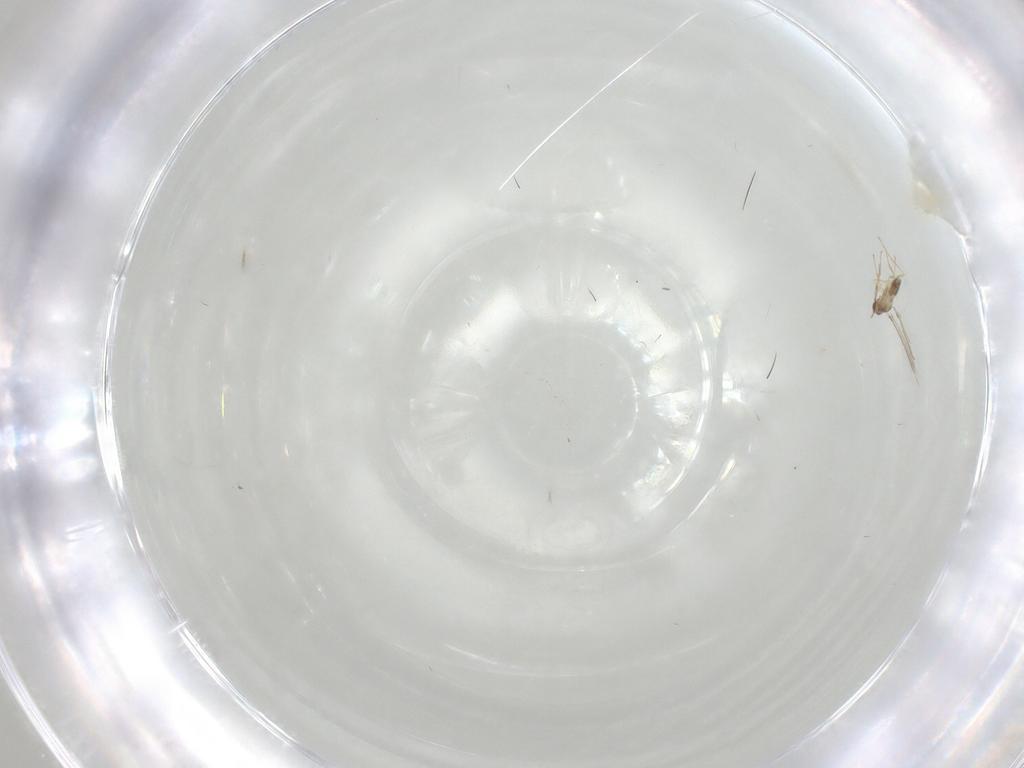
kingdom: Animalia
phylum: Arthropoda
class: Insecta
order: Hymenoptera
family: Mymaridae
